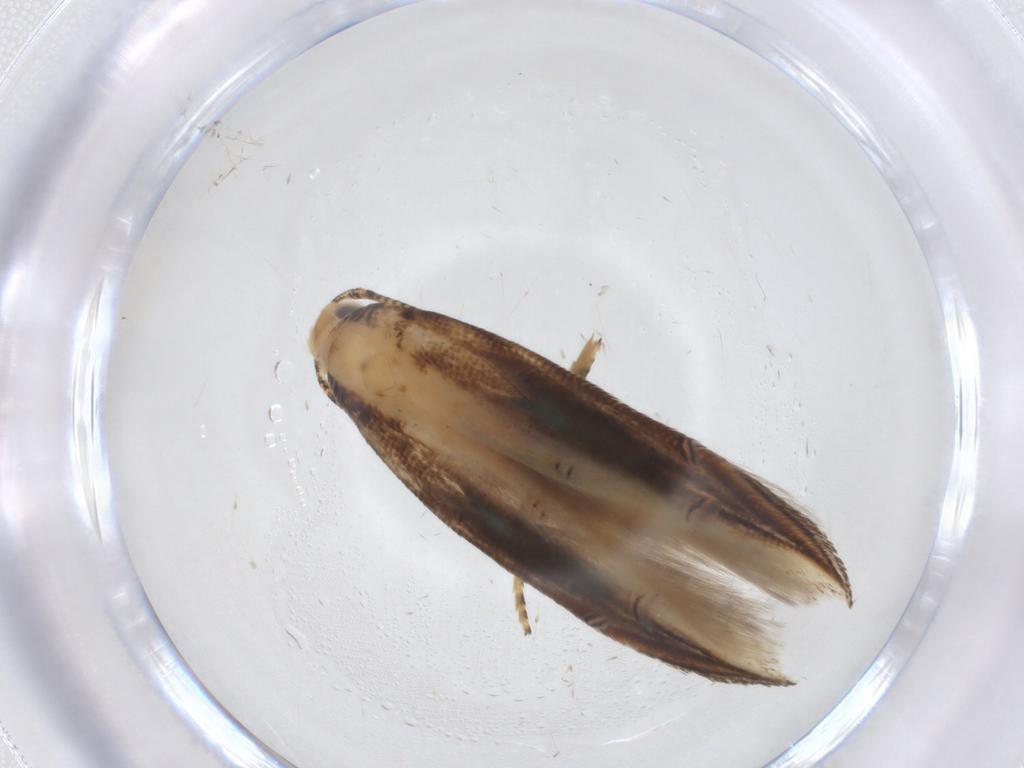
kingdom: Animalia
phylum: Arthropoda
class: Insecta
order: Lepidoptera
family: Momphidae
